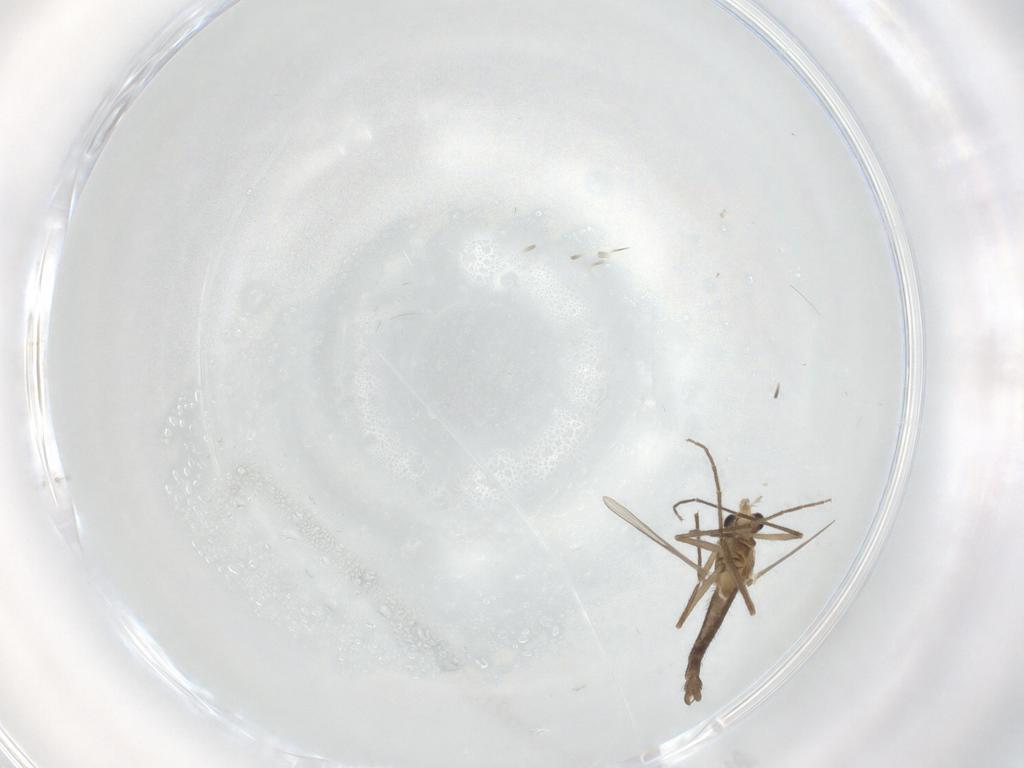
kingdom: Animalia
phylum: Arthropoda
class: Insecta
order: Diptera
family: Chironomidae
